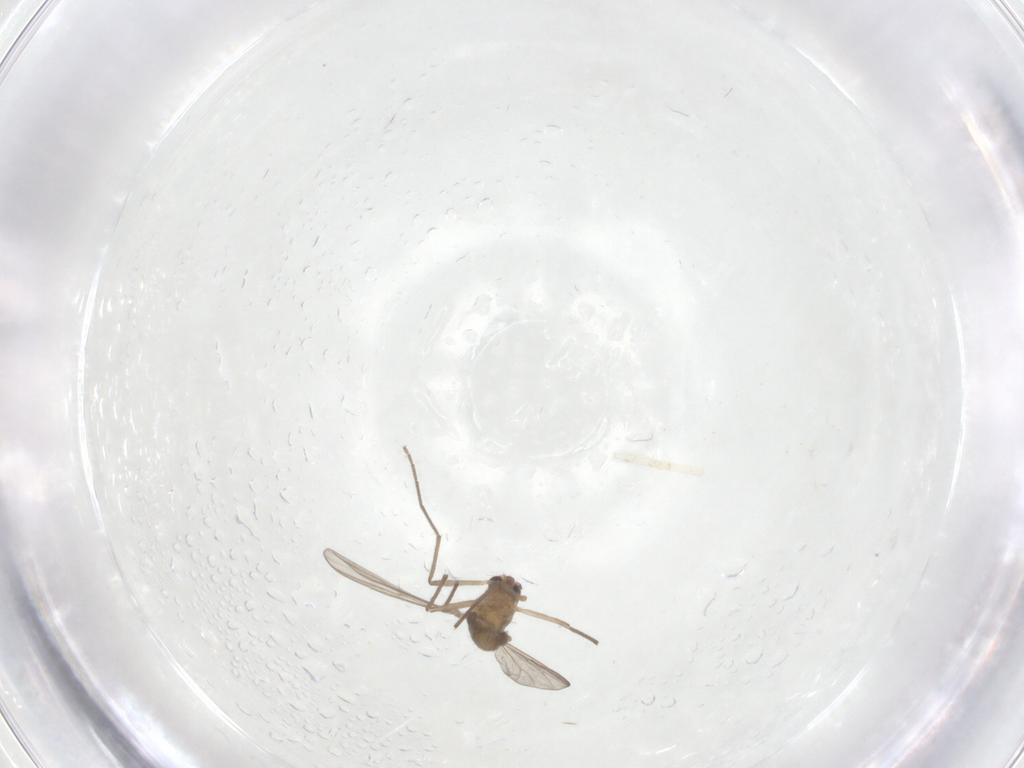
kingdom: Animalia
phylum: Arthropoda
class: Insecta
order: Diptera
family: Chironomidae
